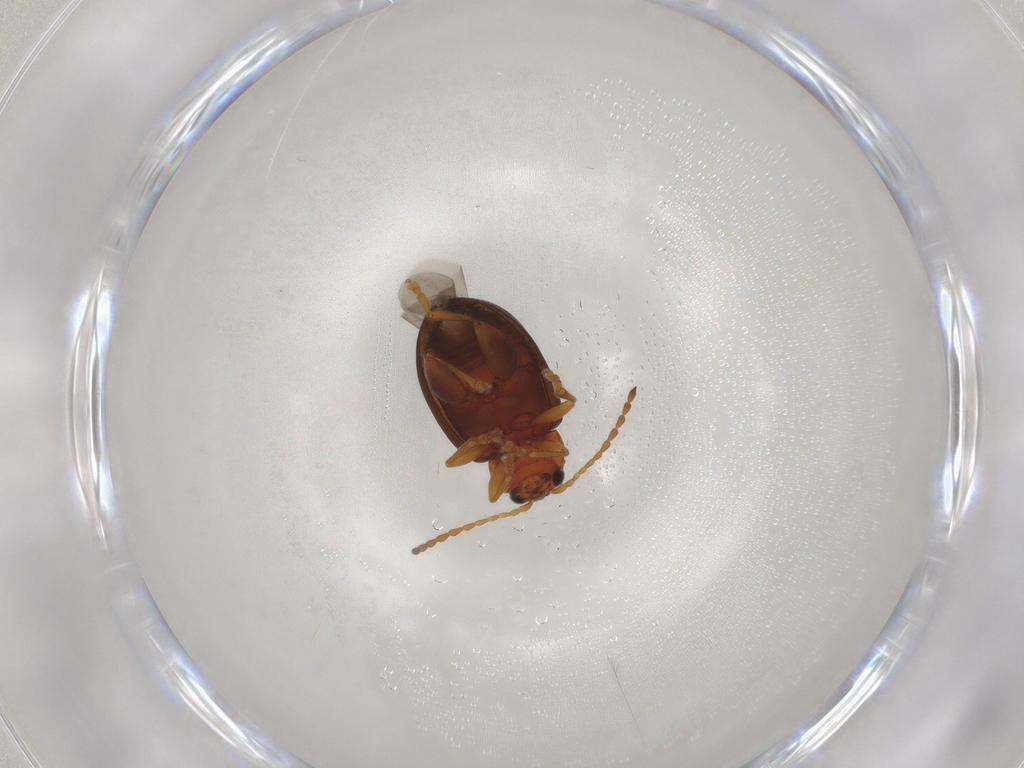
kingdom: Animalia
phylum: Arthropoda
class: Insecta
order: Coleoptera
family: Chrysomelidae
